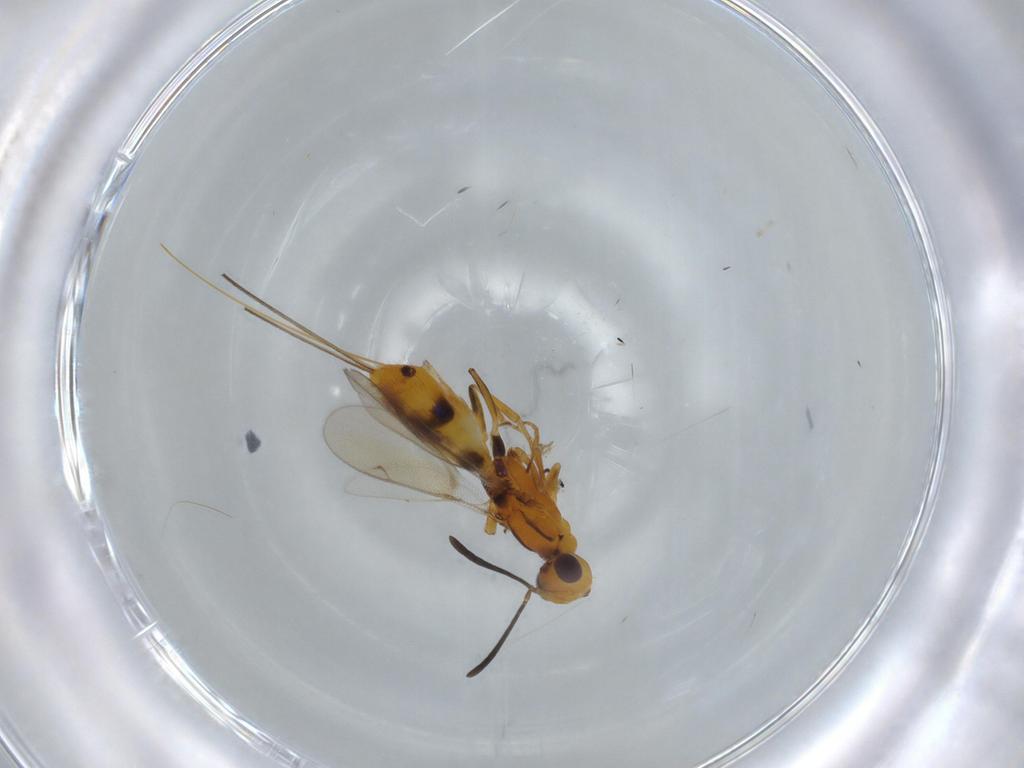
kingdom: Animalia
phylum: Arthropoda
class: Insecta
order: Hymenoptera
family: Eupelmidae
